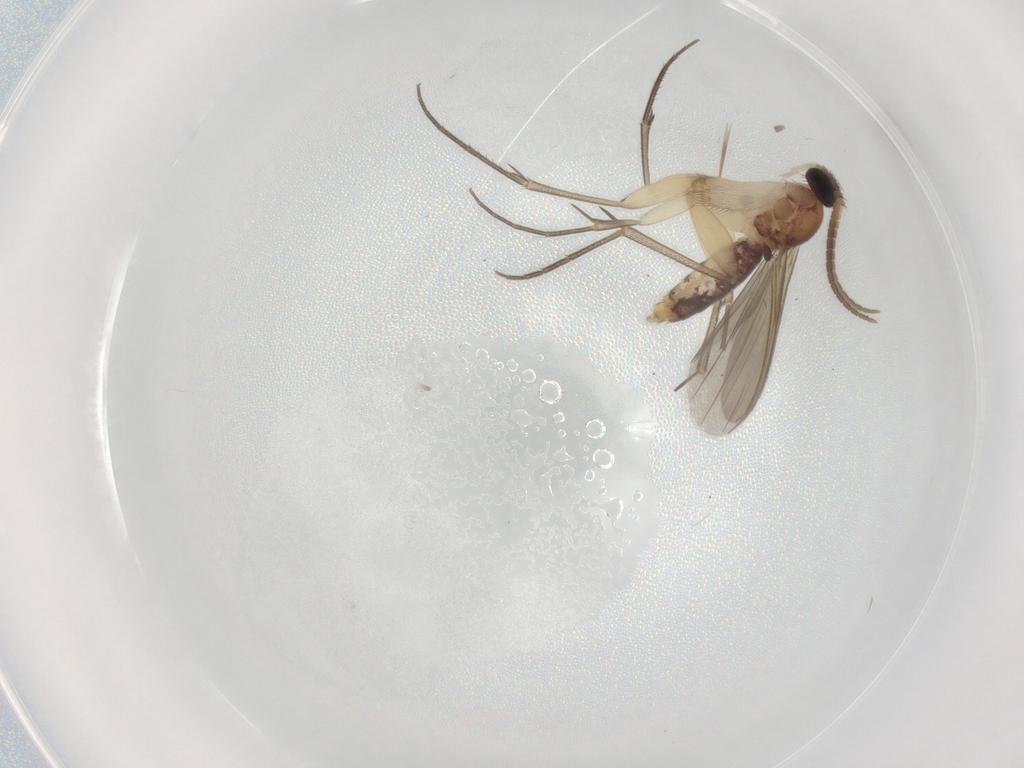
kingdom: Animalia
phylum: Arthropoda
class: Insecta
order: Diptera
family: Mycetophilidae
